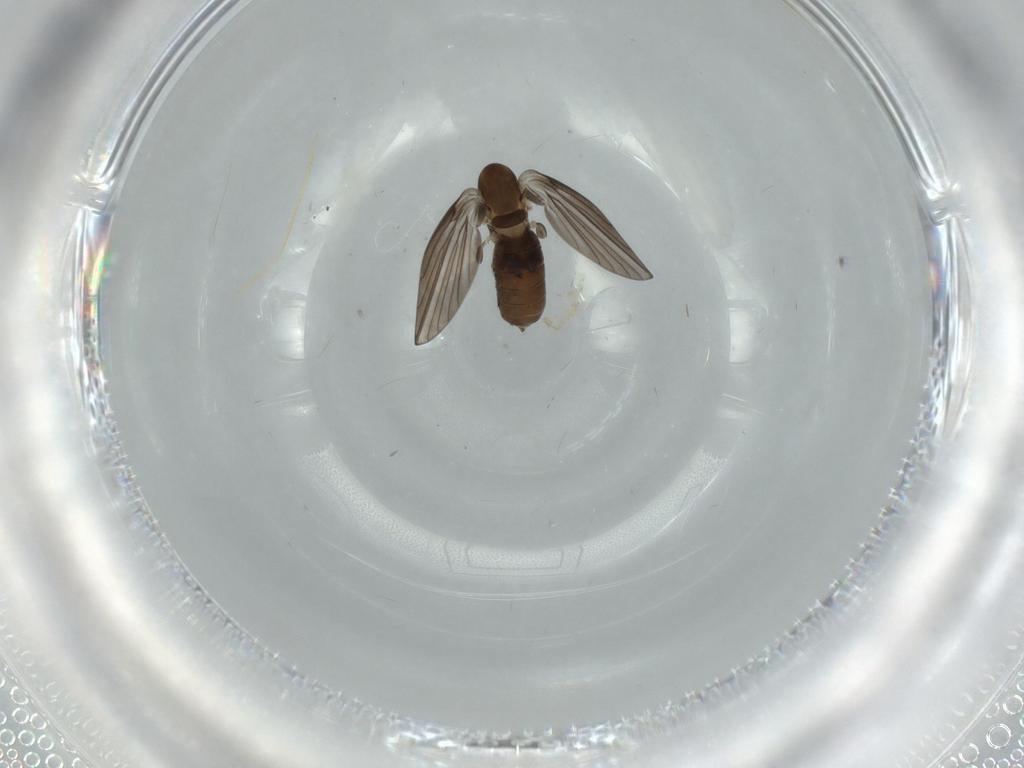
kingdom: Animalia
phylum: Arthropoda
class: Insecta
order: Diptera
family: Psychodidae
